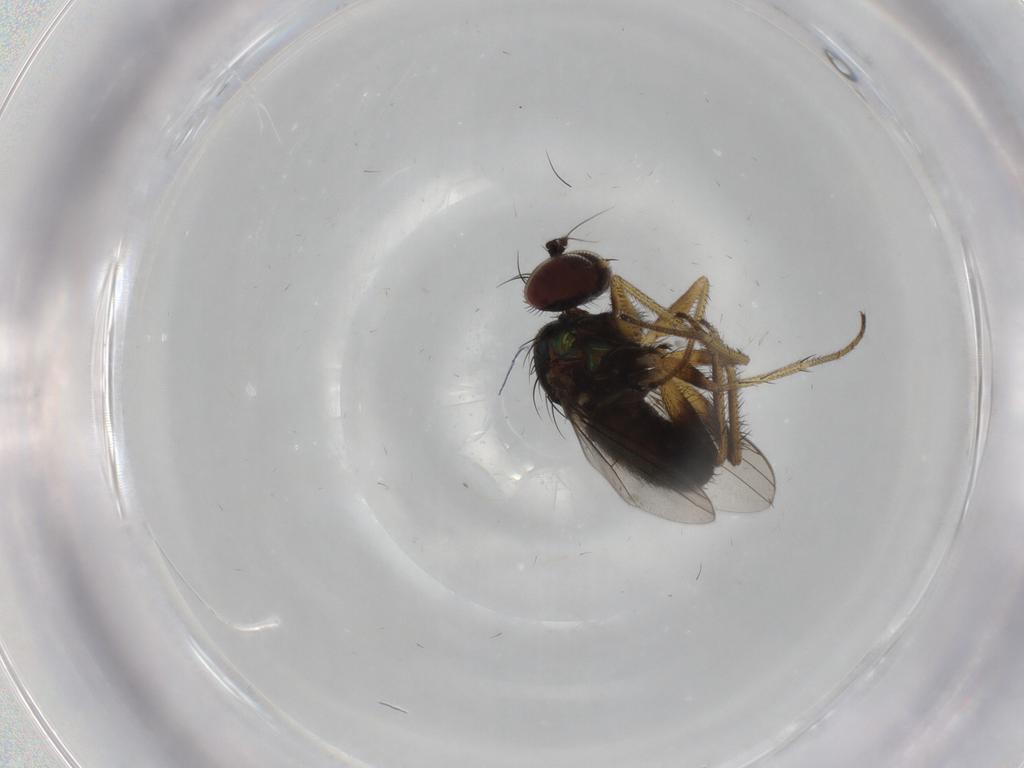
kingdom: Animalia
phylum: Arthropoda
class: Insecta
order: Diptera
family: Dolichopodidae
